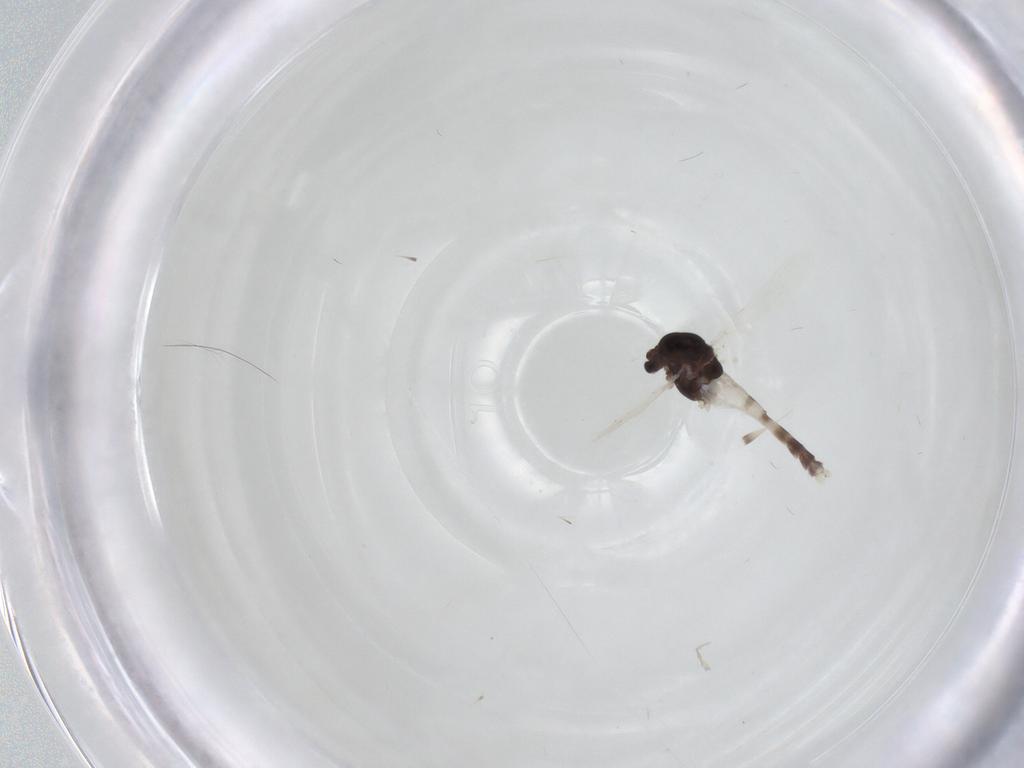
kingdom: Animalia
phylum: Arthropoda
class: Insecta
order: Diptera
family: Chironomidae
